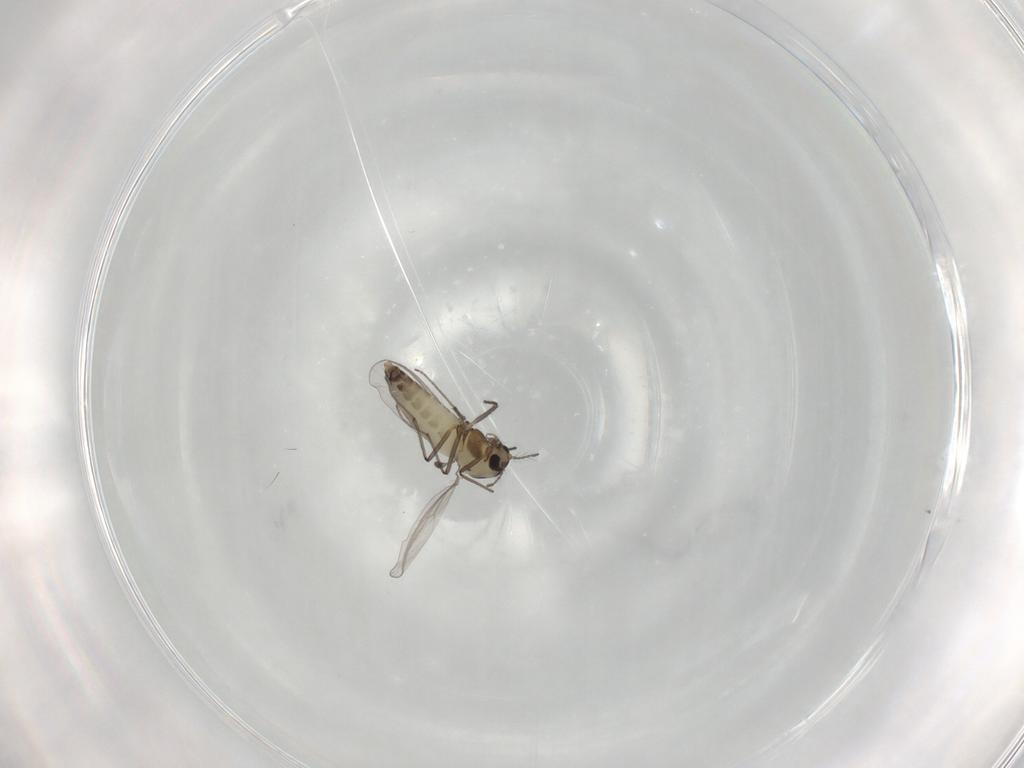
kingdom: Animalia
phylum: Arthropoda
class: Insecta
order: Diptera
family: Chironomidae
